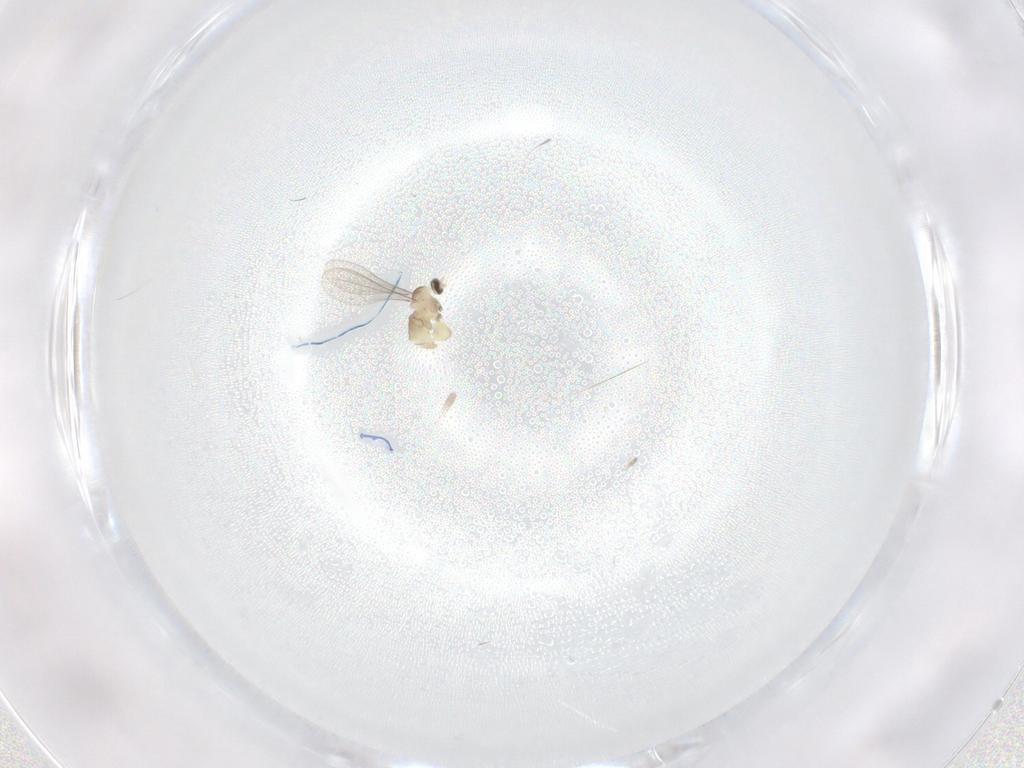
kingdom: Animalia
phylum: Arthropoda
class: Insecta
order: Diptera
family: Cecidomyiidae
